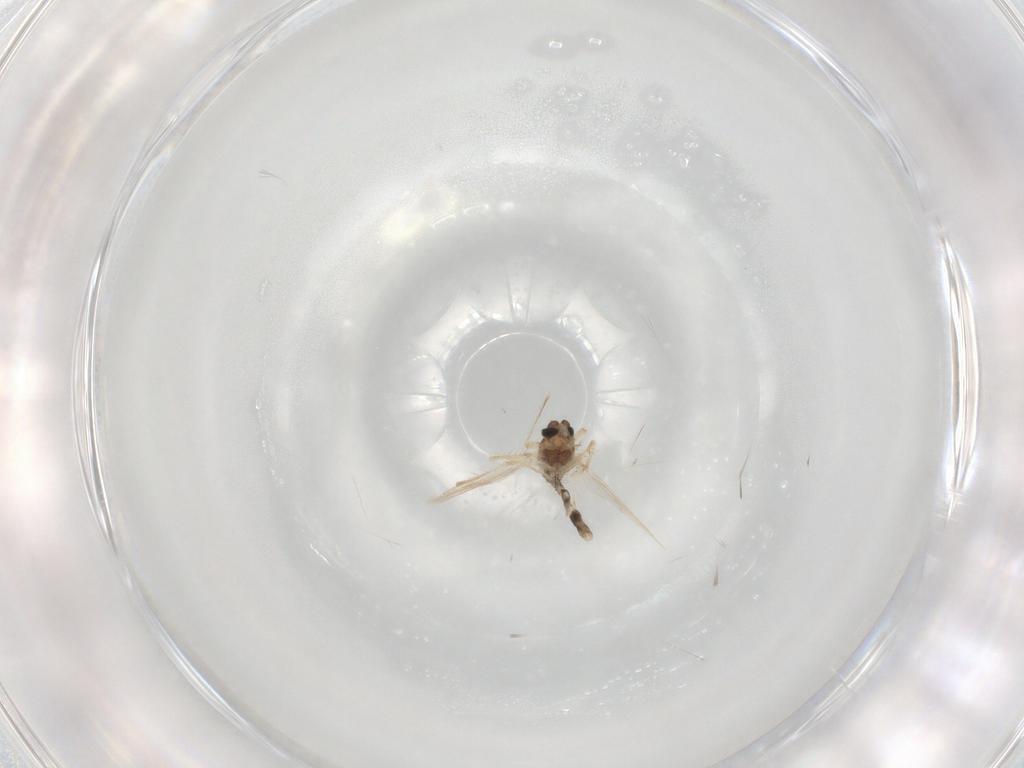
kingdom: Animalia
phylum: Arthropoda
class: Insecta
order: Diptera
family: Chironomidae
